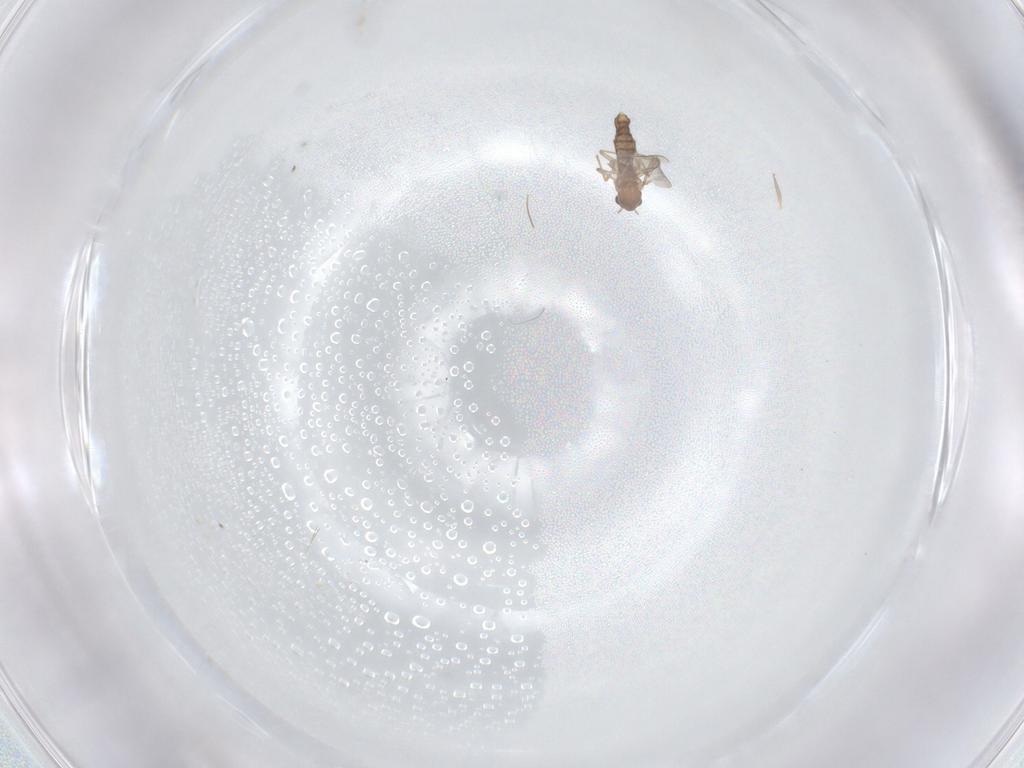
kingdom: Animalia
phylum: Arthropoda
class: Insecta
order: Diptera
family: Chironomidae
